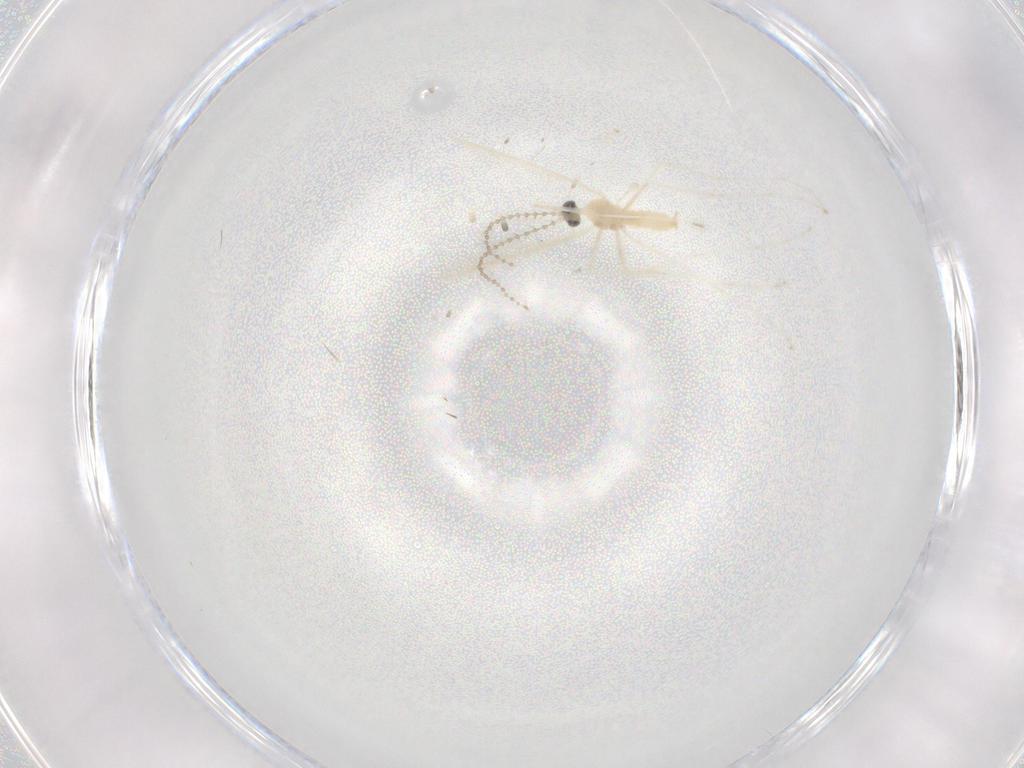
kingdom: Animalia
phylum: Arthropoda
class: Insecta
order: Diptera
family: Cecidomyiidae
